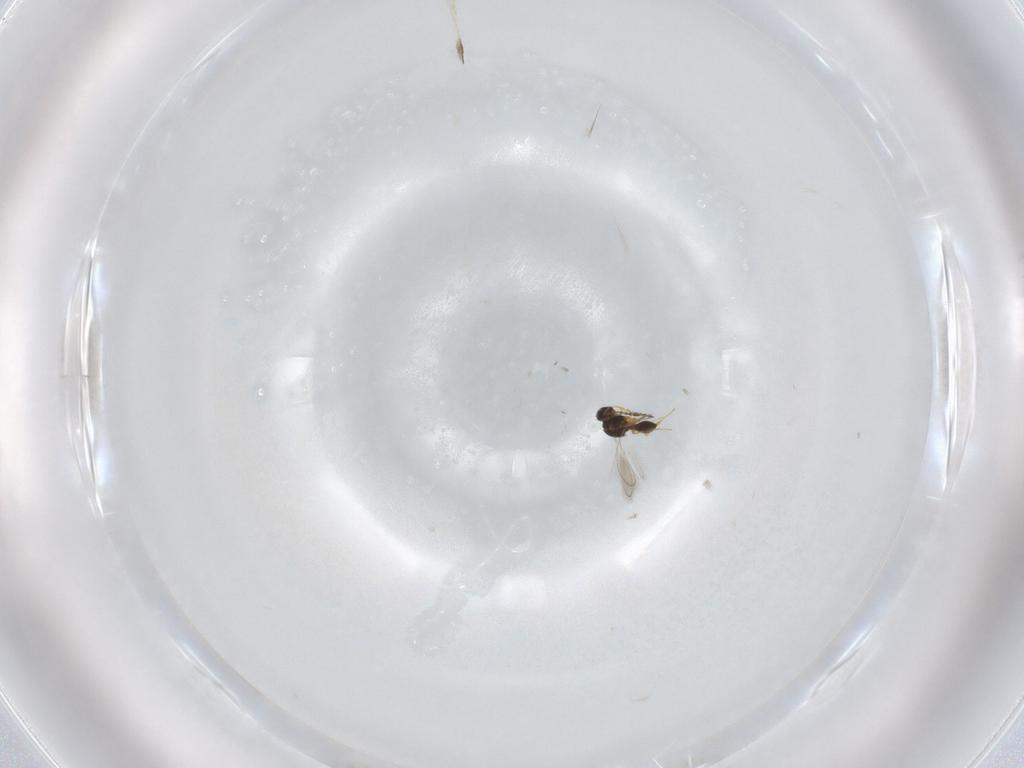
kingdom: Animalia
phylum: Arthropoda
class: Insecta
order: Hymenoptera
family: Platygastridae
